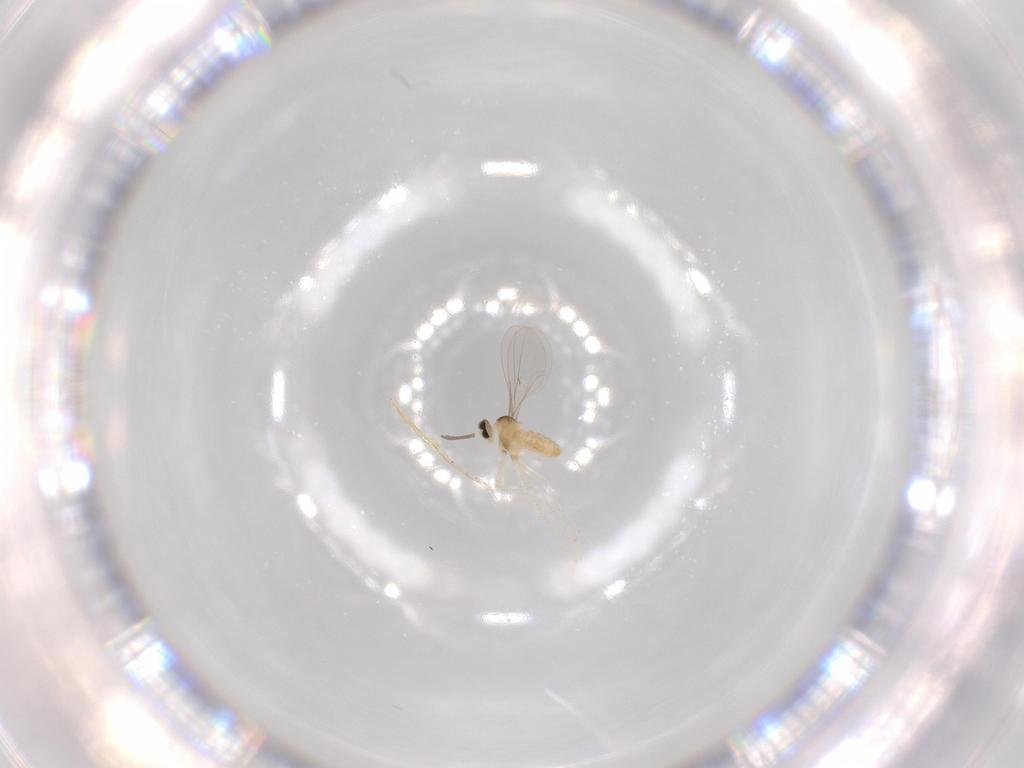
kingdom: Animalia
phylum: Arthropoda
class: Insecta
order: Diptera
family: Cecidomyiidae
